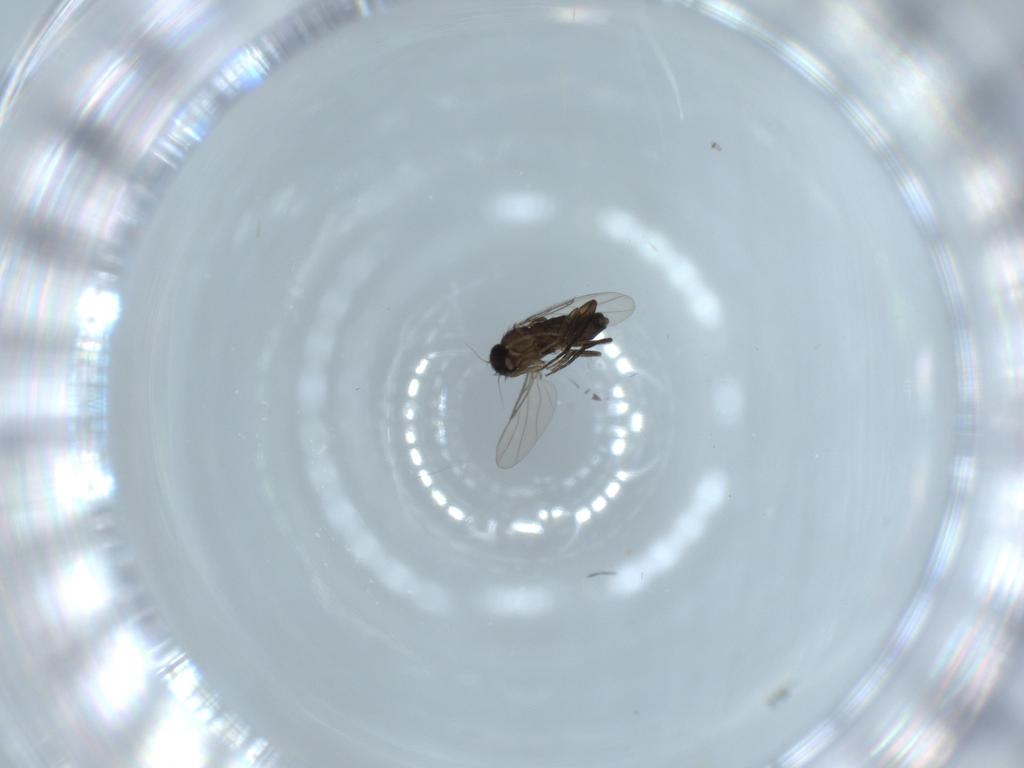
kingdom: Animalia
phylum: Arthropoda
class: Insecta
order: Diptera
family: Phoridae
